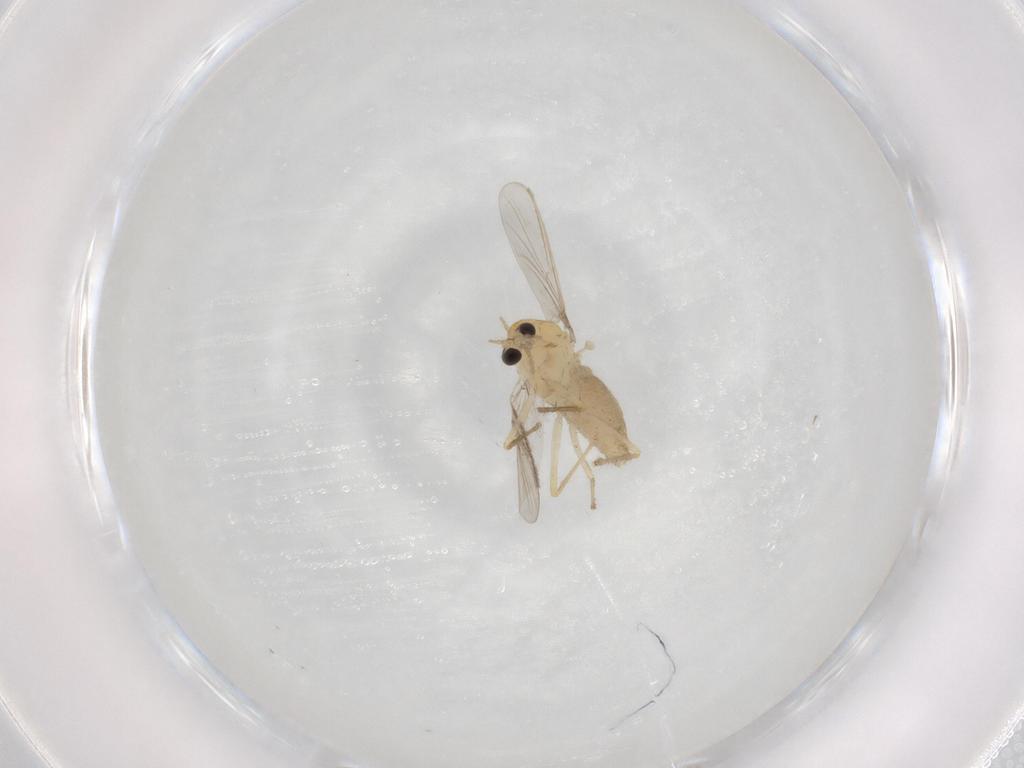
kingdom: Animalia
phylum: Arthropoda
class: Insecta
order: Diptera
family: Chironomidae
